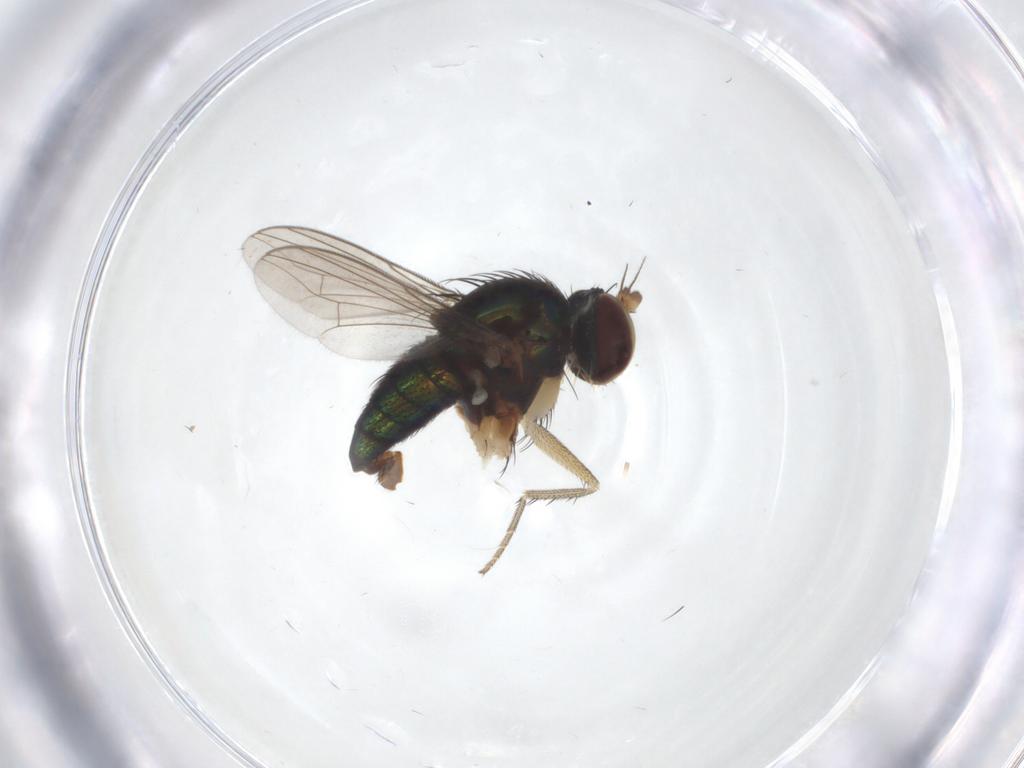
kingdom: Animalia
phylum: Arthropoda
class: Insecta
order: Diptera
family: Dolichopodidae
